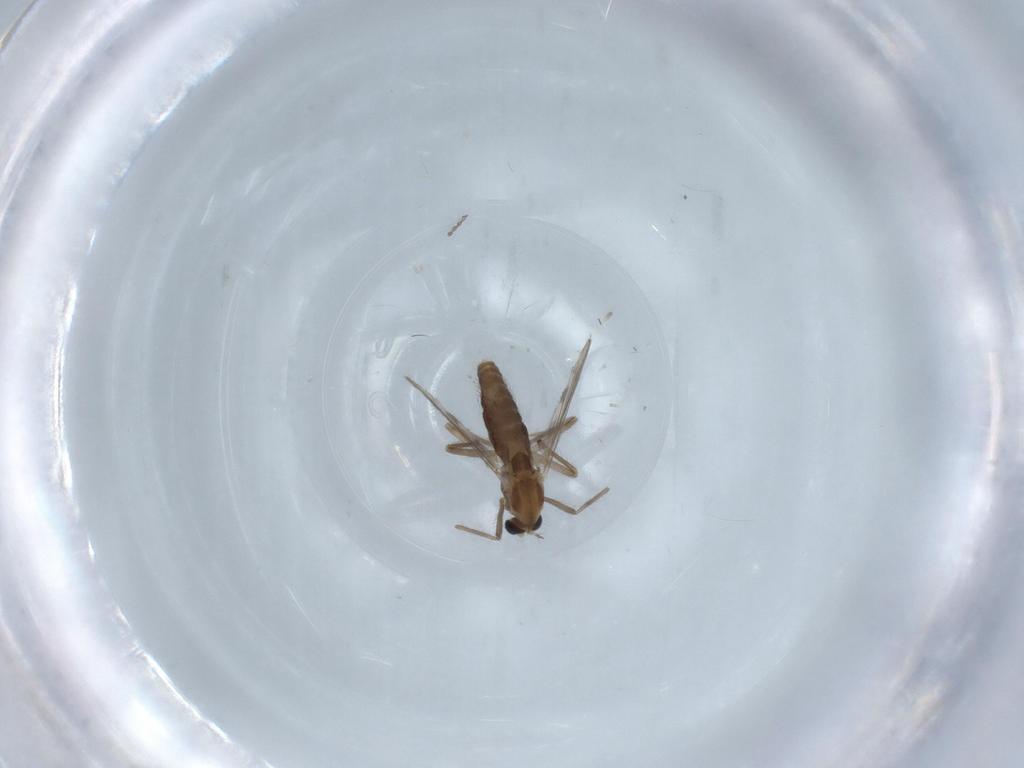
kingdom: Animalia
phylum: Arthropoda
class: Insecta
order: Diptera
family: Chironomidae
